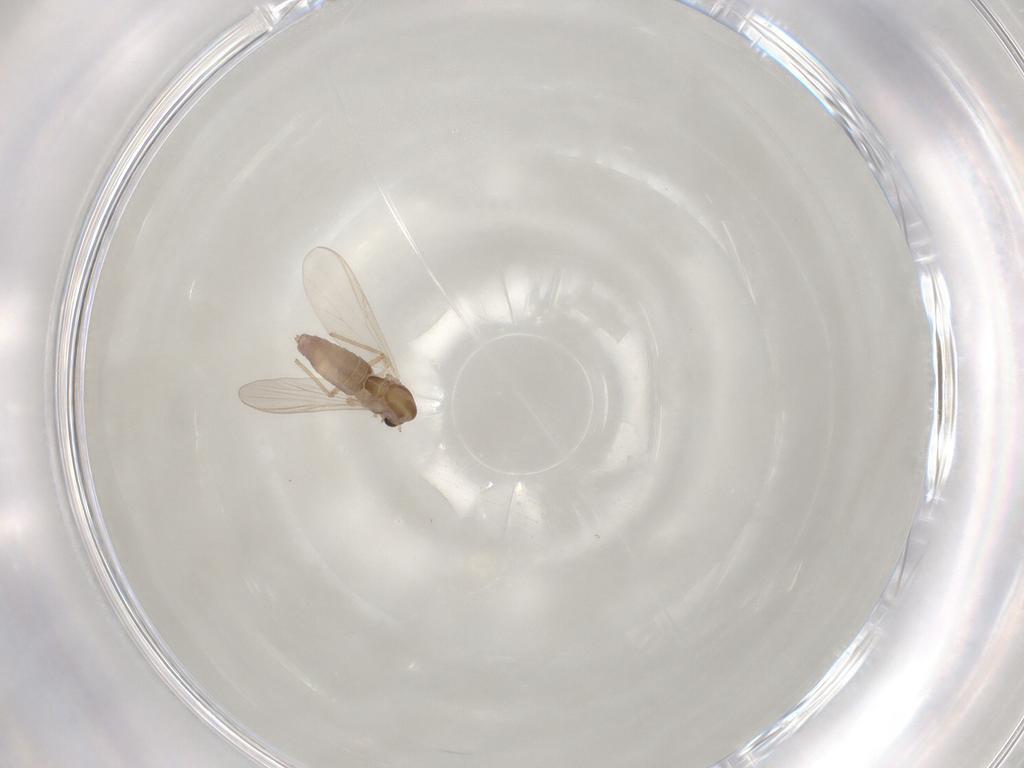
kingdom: Animalia
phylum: Arthropoda
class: Insecta
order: Diptera
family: Chironomidae
